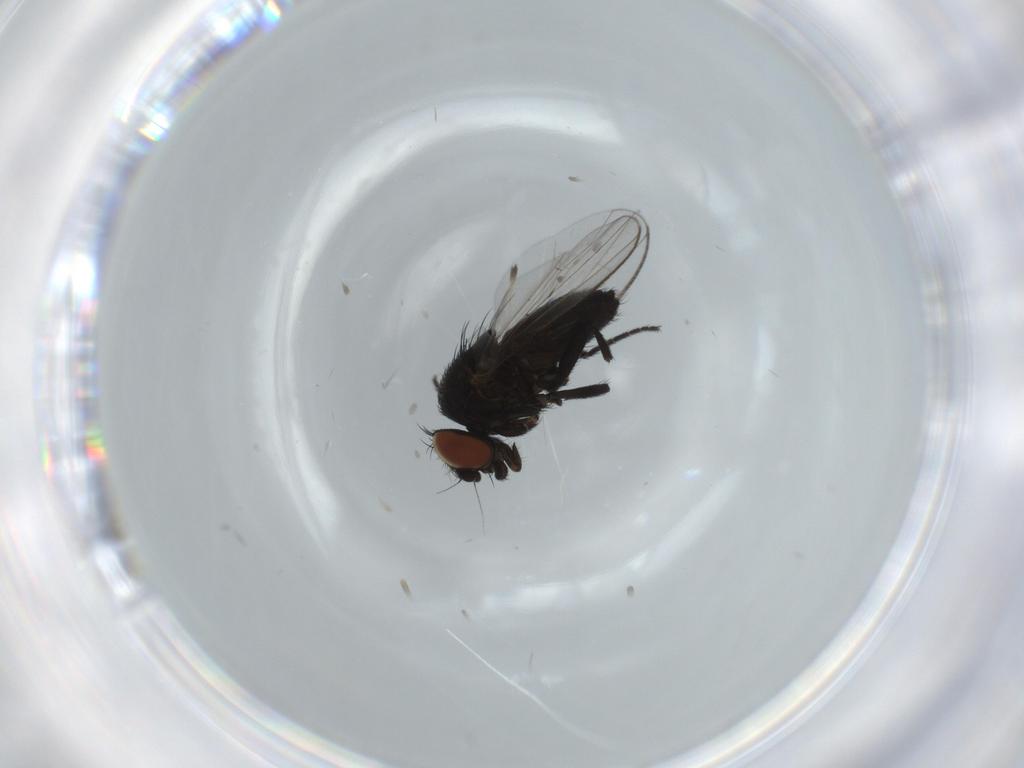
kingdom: Animalia
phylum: Arthropoda
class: Insecta
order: Diptera
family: Milichiidae
